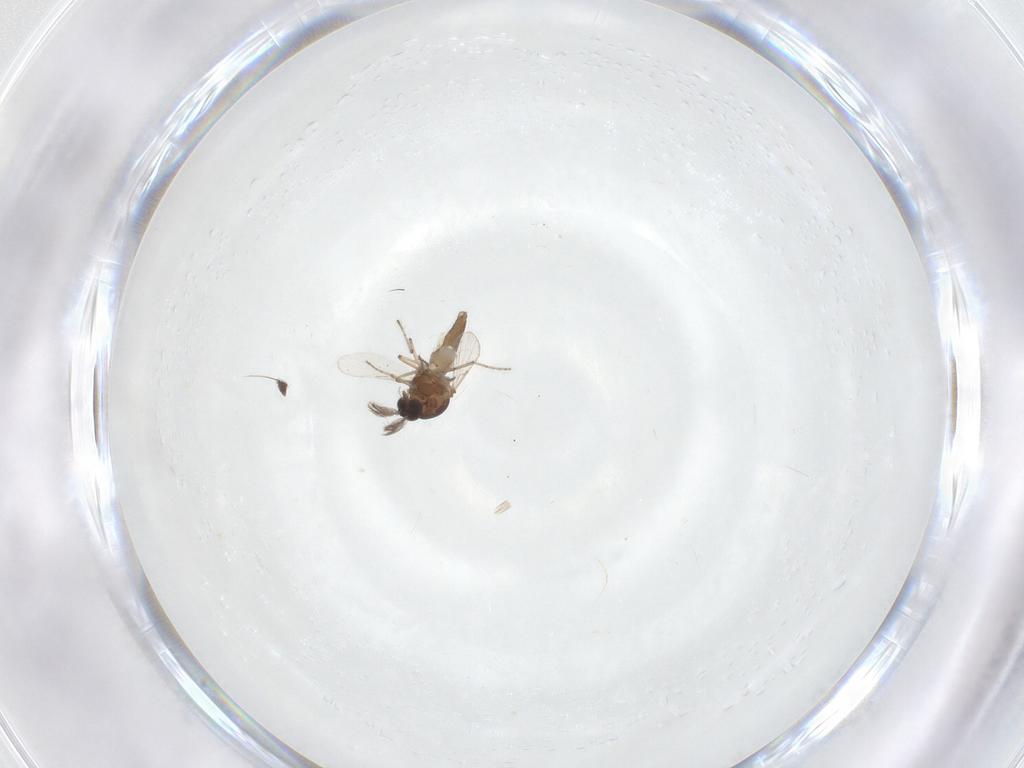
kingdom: Animalia
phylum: Arthropoda
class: Insecta
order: Diptera
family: Dolichopodidae
